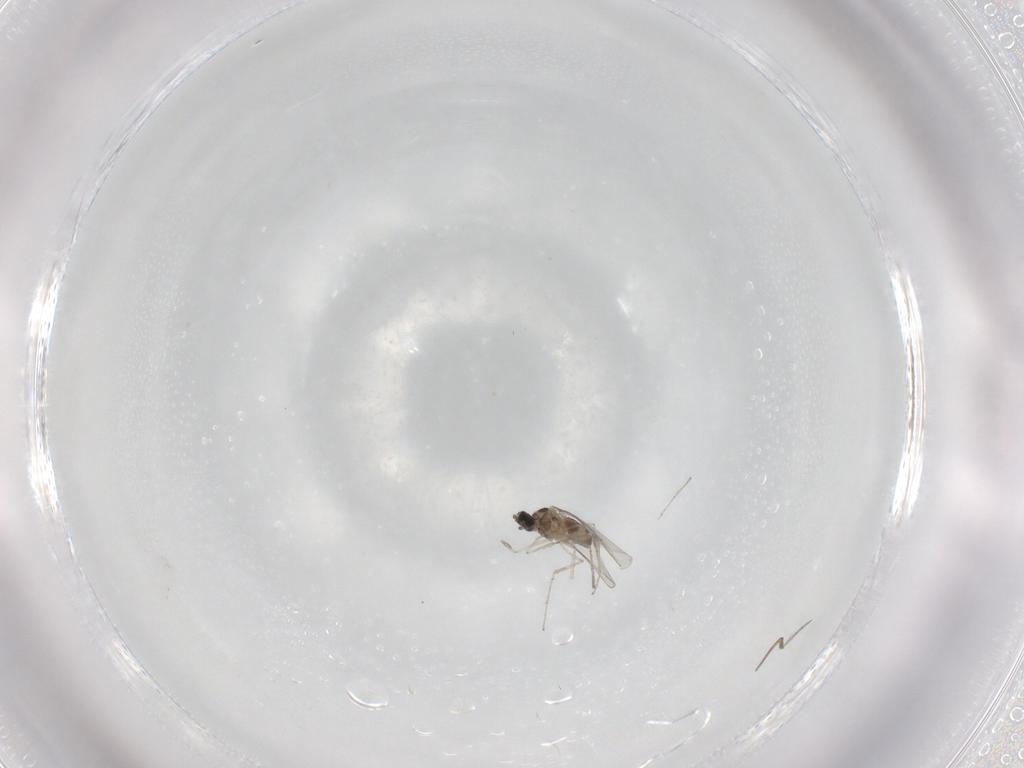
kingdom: Animalia
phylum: Arthropoda
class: Insecta
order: Diptera
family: Cecidomyiidae
